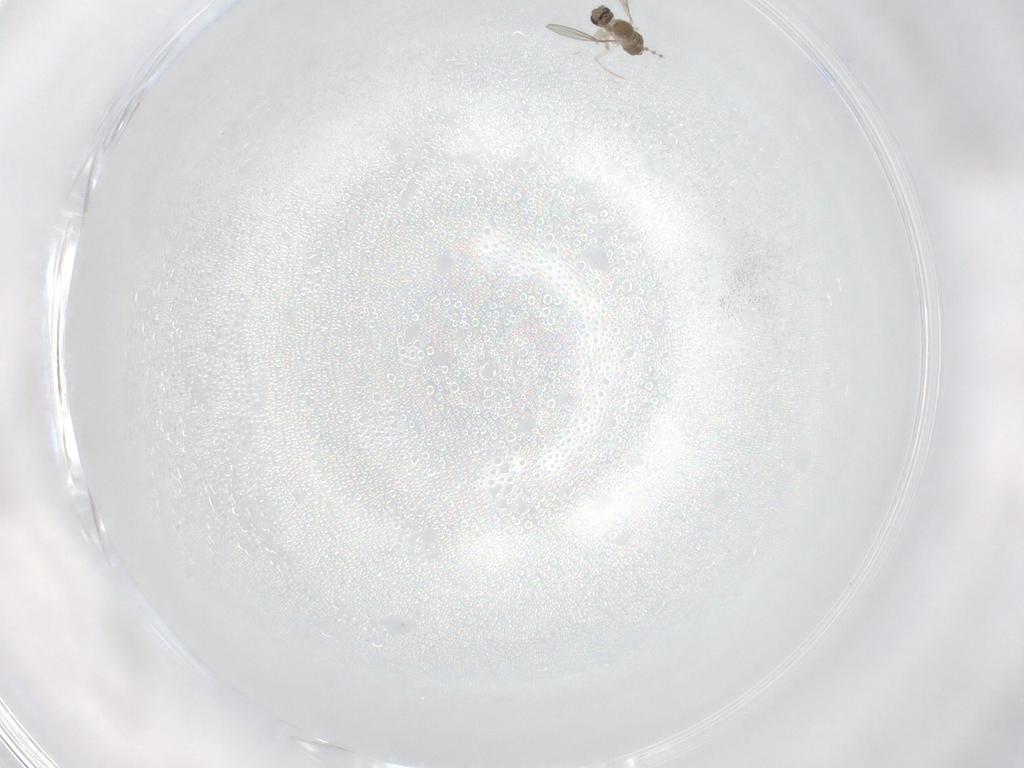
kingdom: Animalia
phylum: Arthropoda
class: Insecta
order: Diptera
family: Cecidomyiidae
